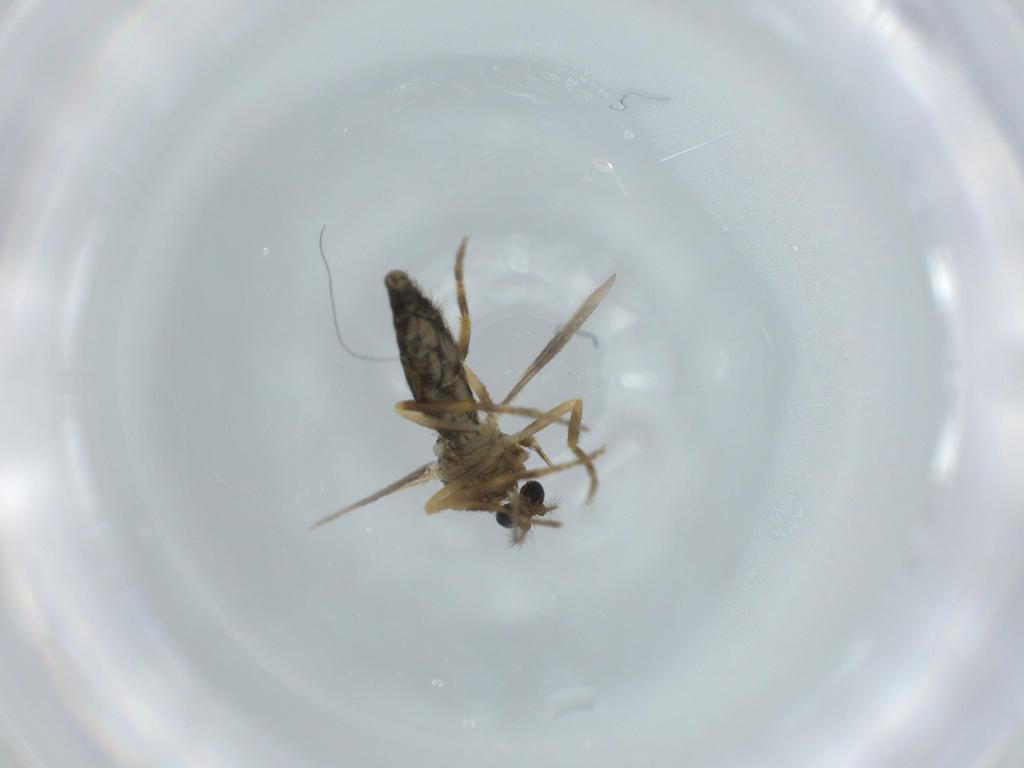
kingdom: Animalia
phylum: Arthropoda
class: Insecta
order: Diptera
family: Ceratopogonidae
